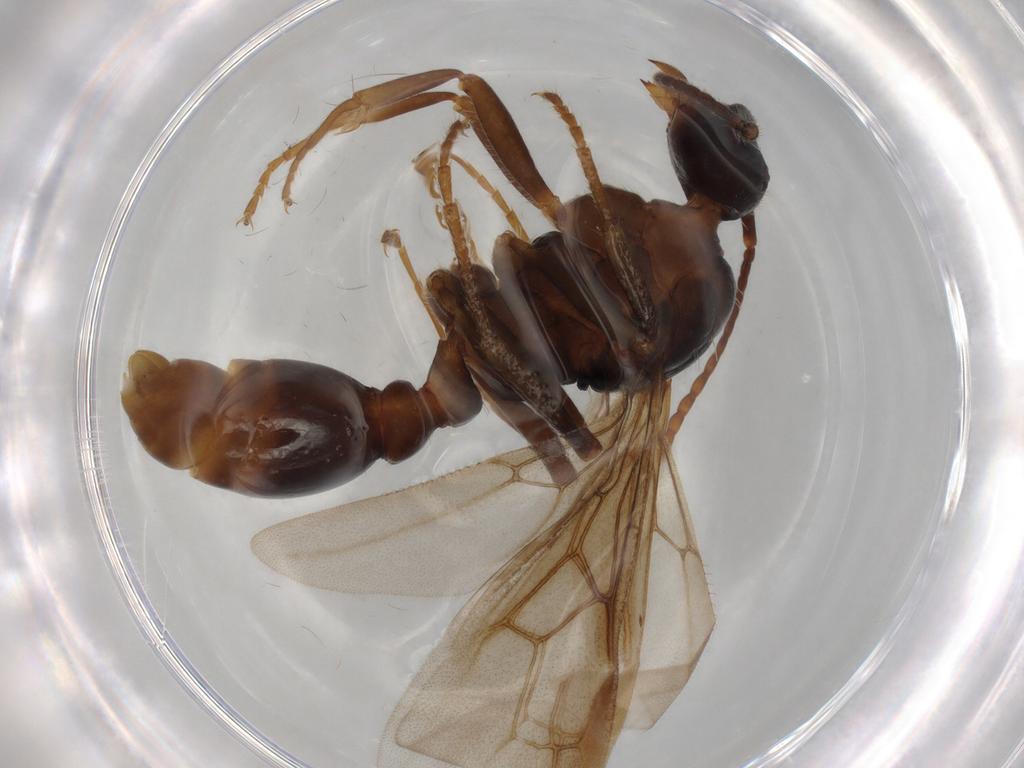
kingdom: Animalia
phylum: Arthropoda
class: Insecta
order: Hymenoptera
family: Formicidae
